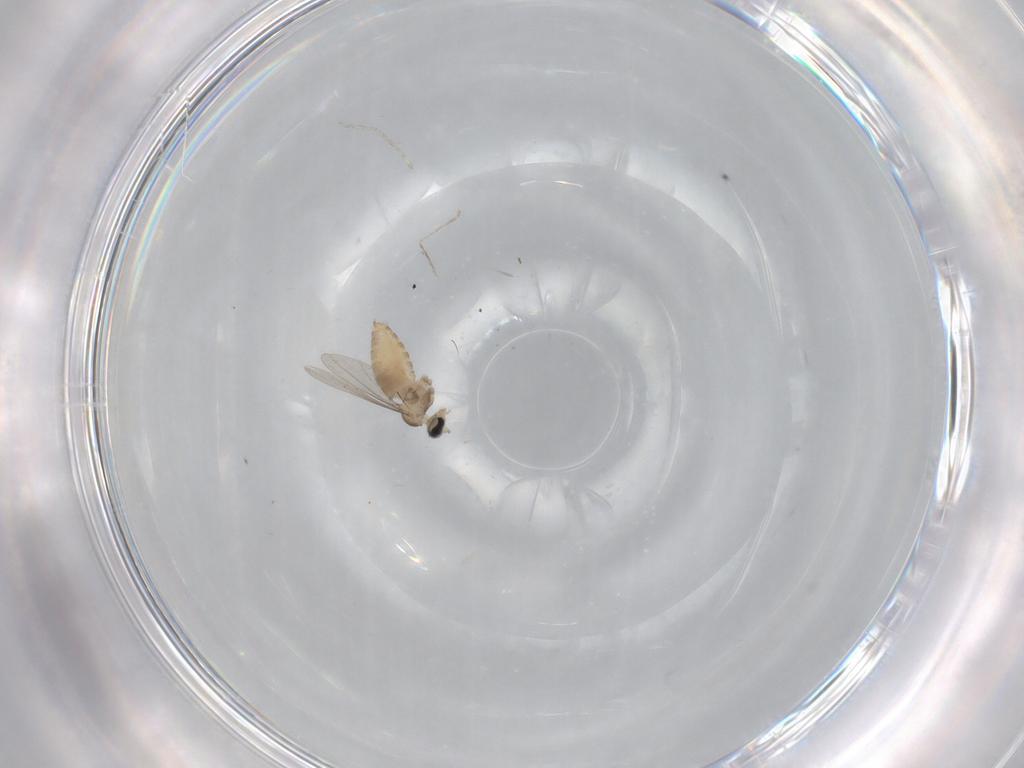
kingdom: Animalia
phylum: Arthropoda
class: Insecta
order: Diptera
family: Cecidomyiidae
